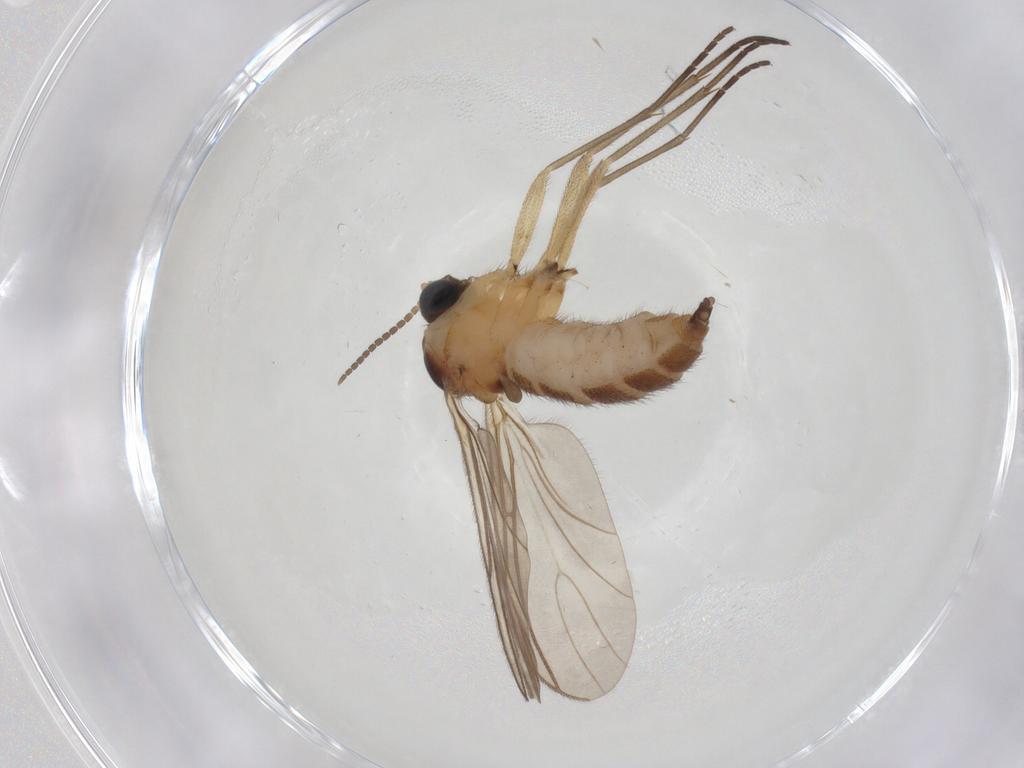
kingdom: Animalia
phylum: Arthropoda
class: Insecta
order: Diptera
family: Sciaridae
